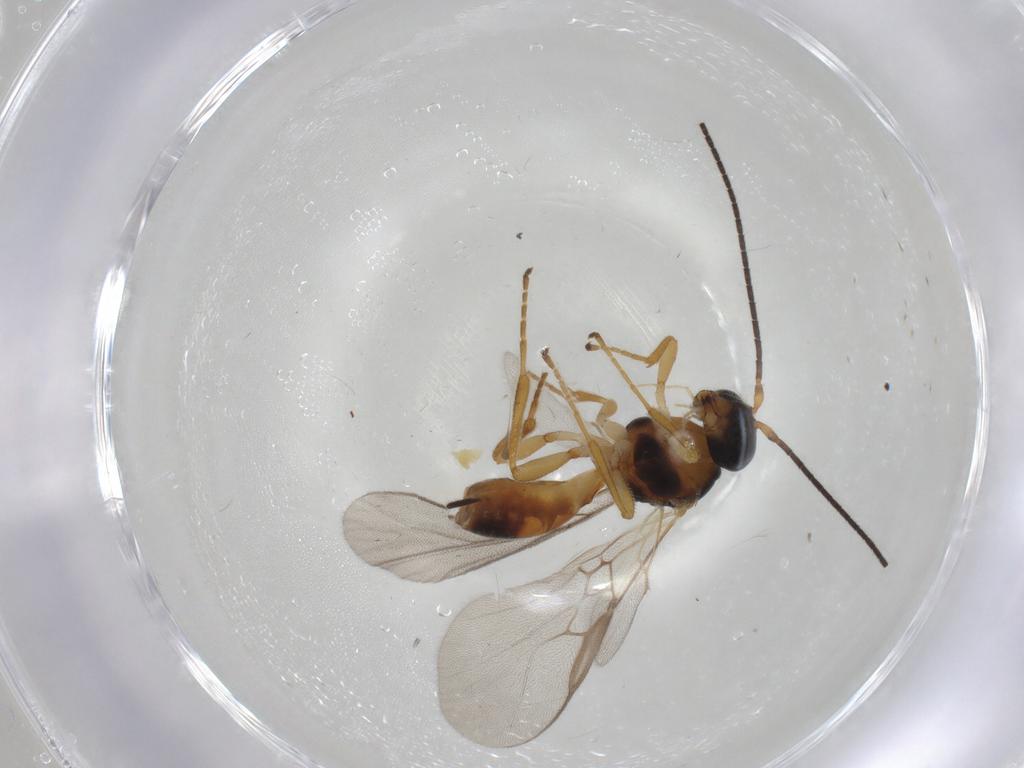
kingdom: Animalia
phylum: Arthropoda
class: Insecta
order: Hymenoptera
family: Braconidae
